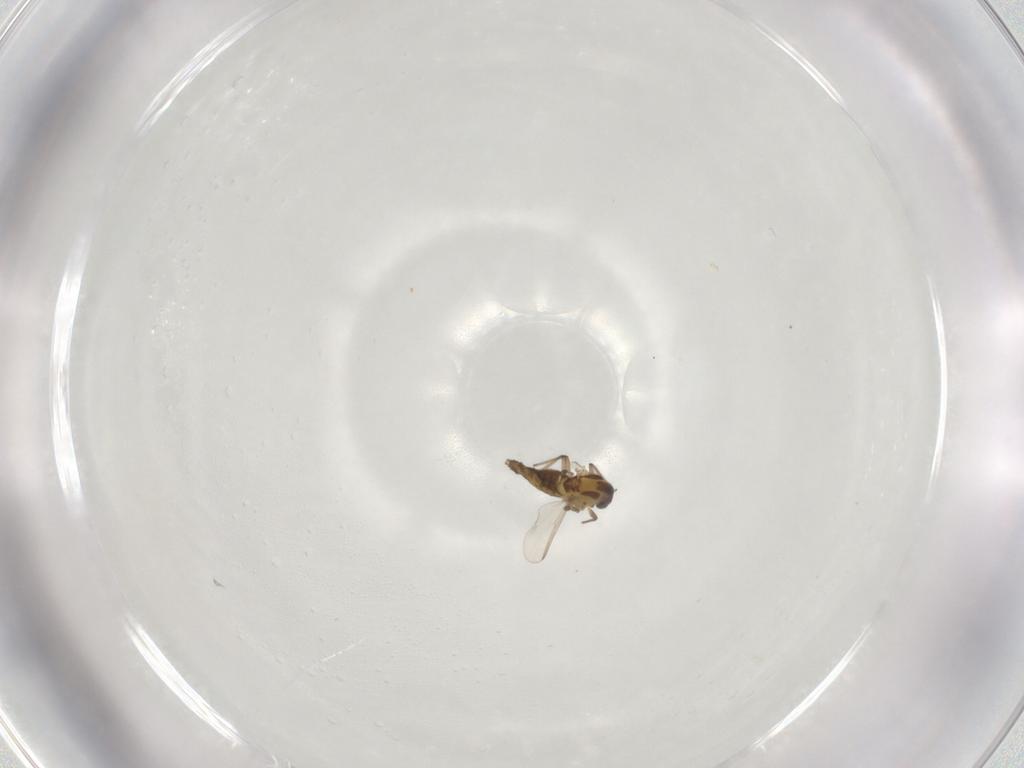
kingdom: Animalia
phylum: Arthropoda
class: Insecta
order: Diptera
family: Chironomidae
